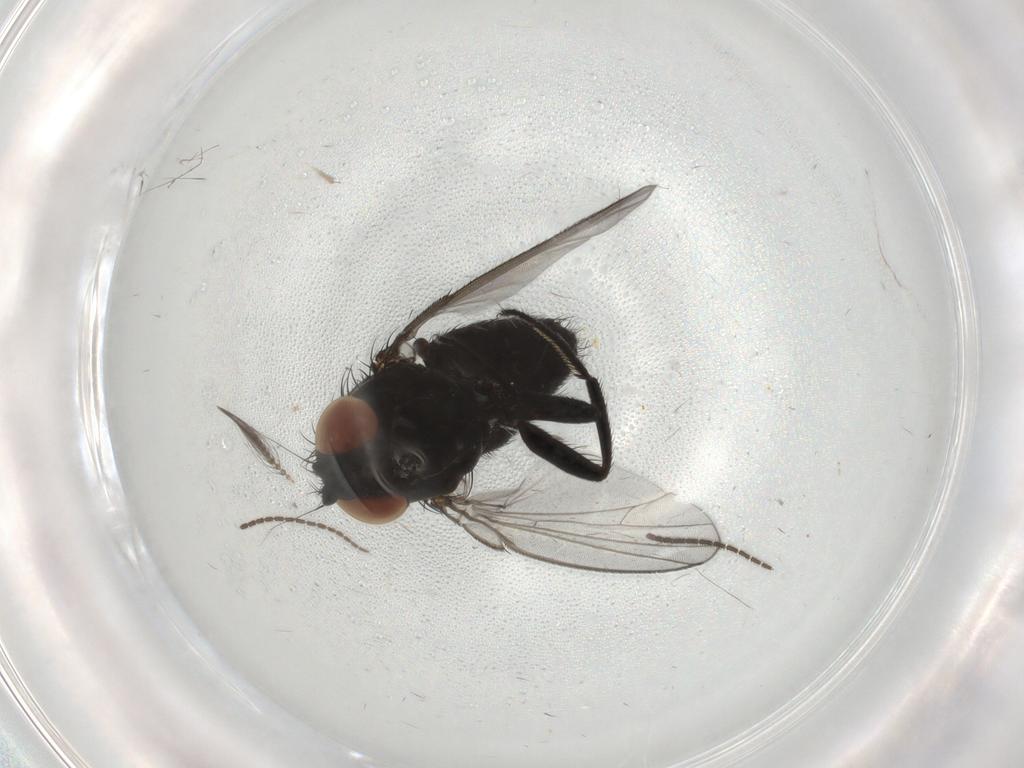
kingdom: Animalia
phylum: Arthropoda
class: Insecta
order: Diptera
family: Milichiidae
